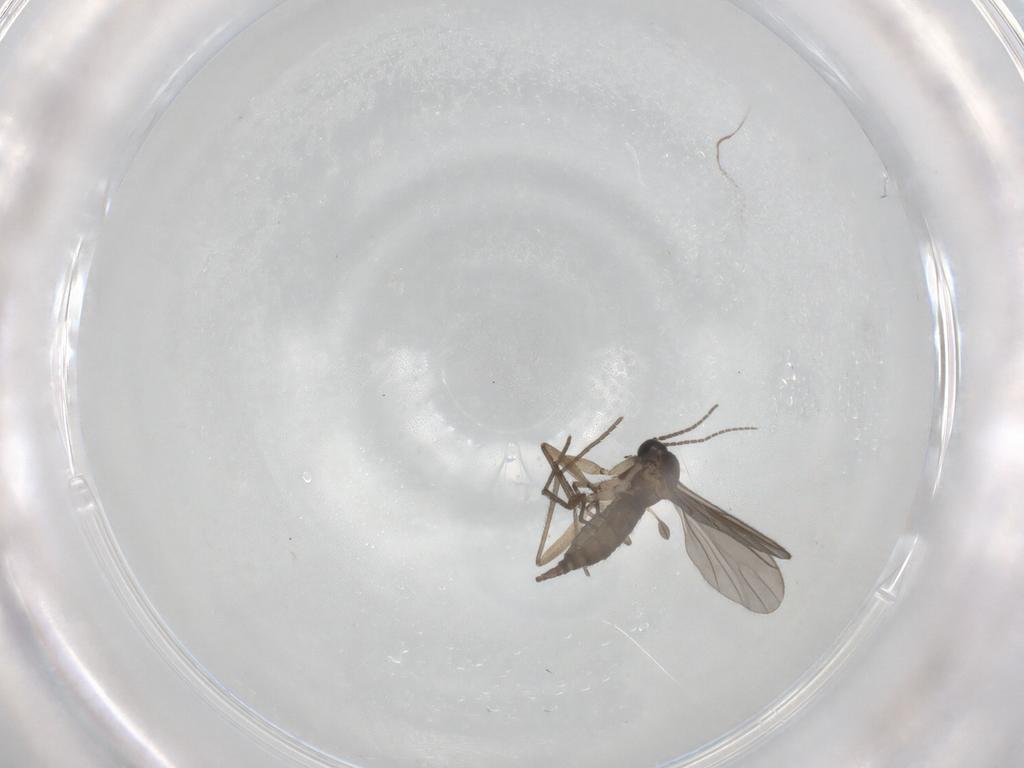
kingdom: Animalia
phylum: Arthropoda
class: Insecta
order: Diptera
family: Sciaridae
